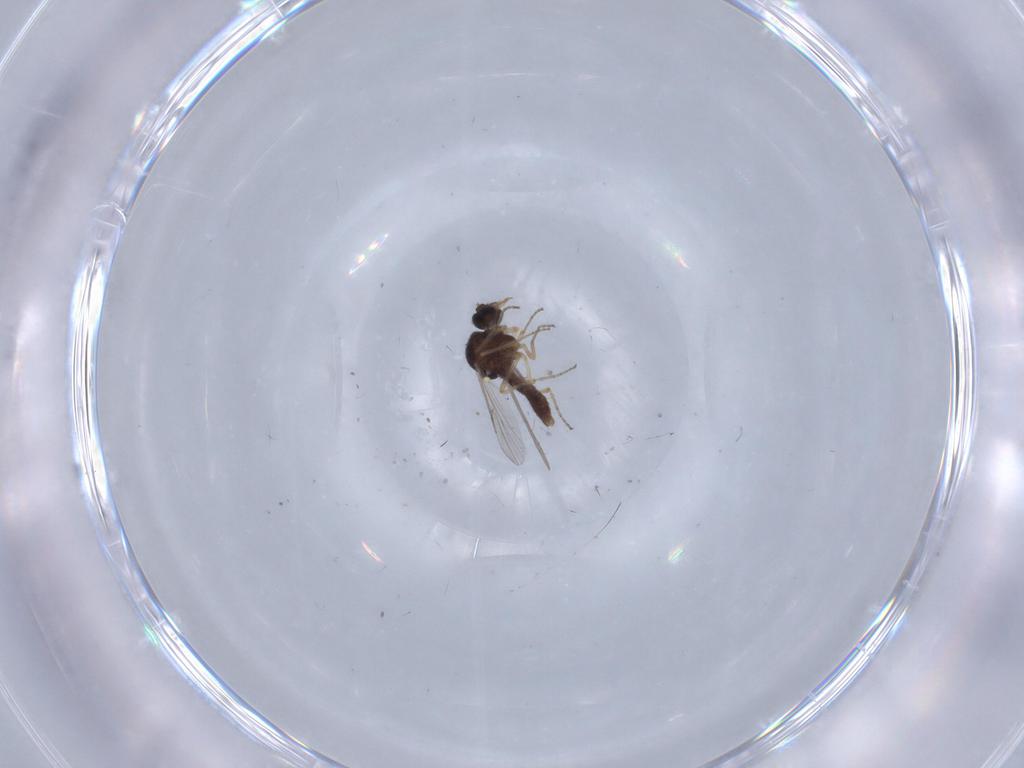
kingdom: Animalia
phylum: Arthropoda
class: Insecta
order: Diptera
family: Ceratopogonidae
